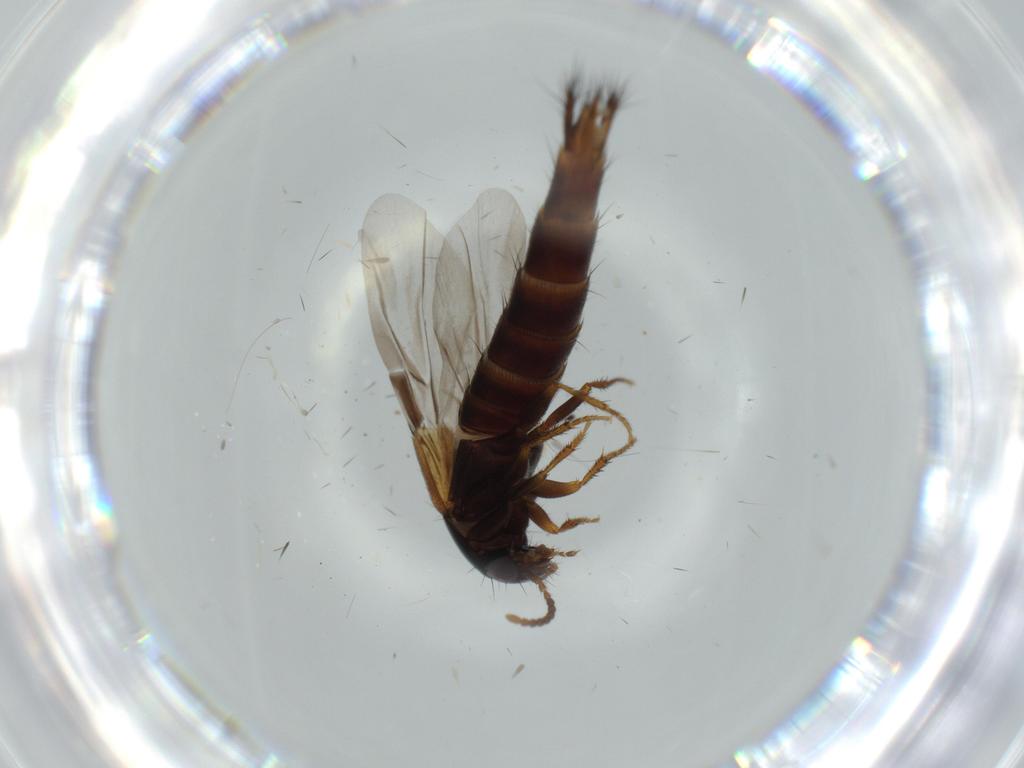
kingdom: Animalia
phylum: Arthropoda
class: Insecta
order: Coleoptera
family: Staphylinidae
